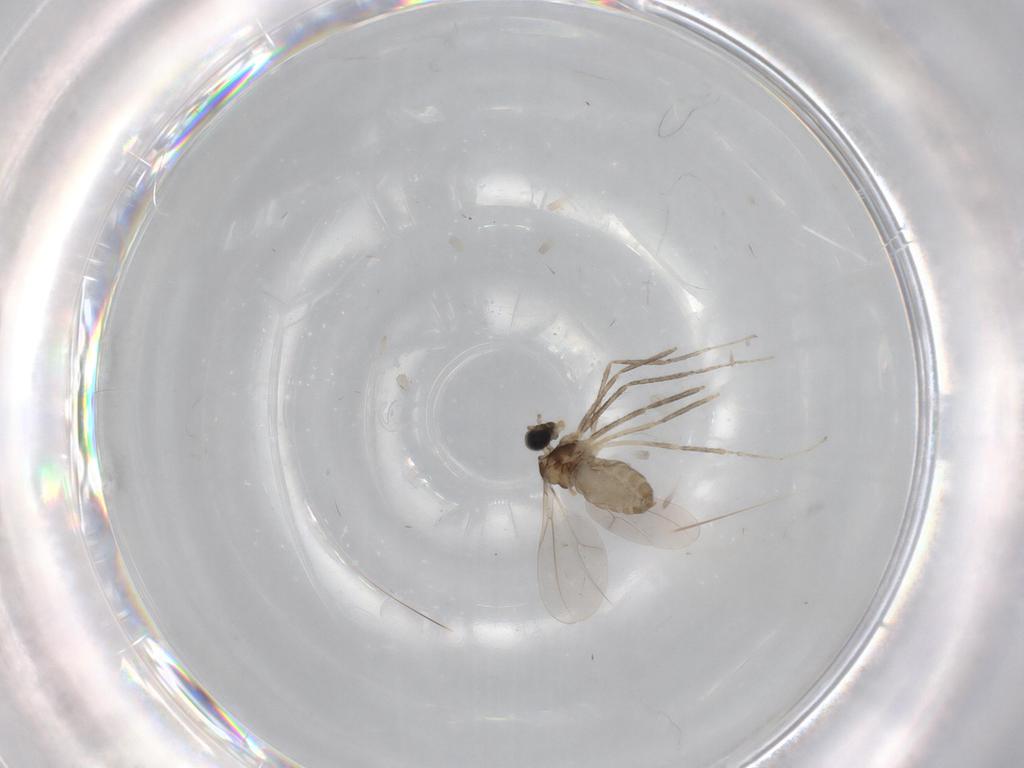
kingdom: Animalia
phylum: Arthropoda
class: Insecta
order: Diptera
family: Cecidomyiidae
